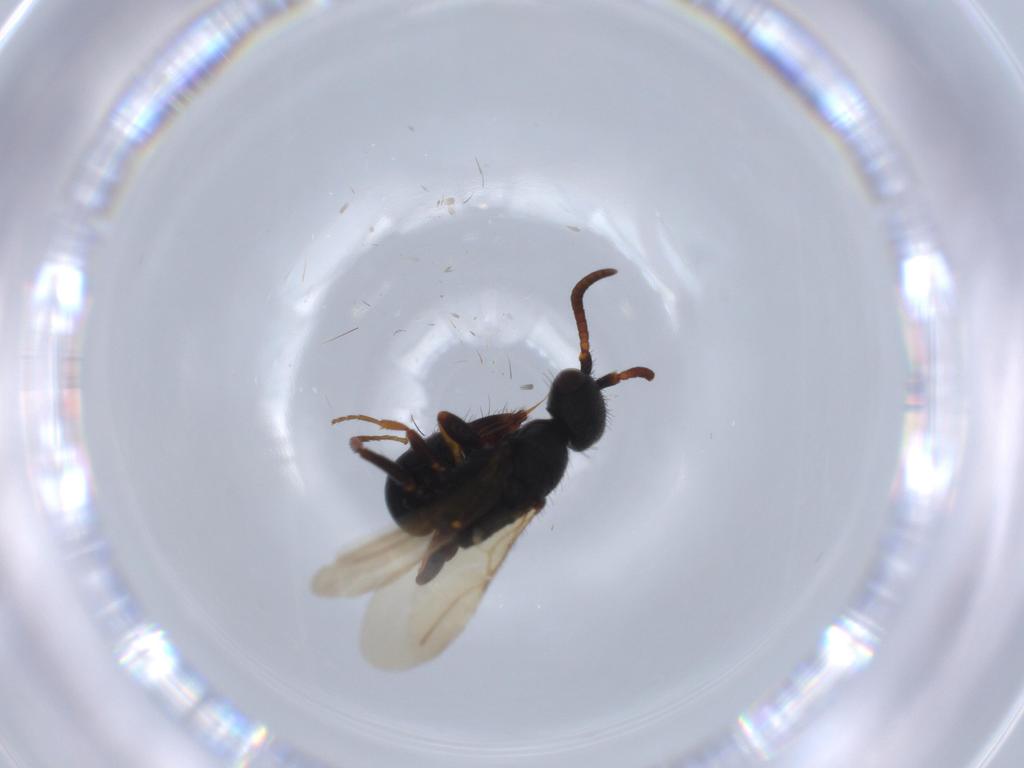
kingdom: Animalia
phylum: Arthropoda
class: Insecta
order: Hymenoptera
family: Bethylidae
